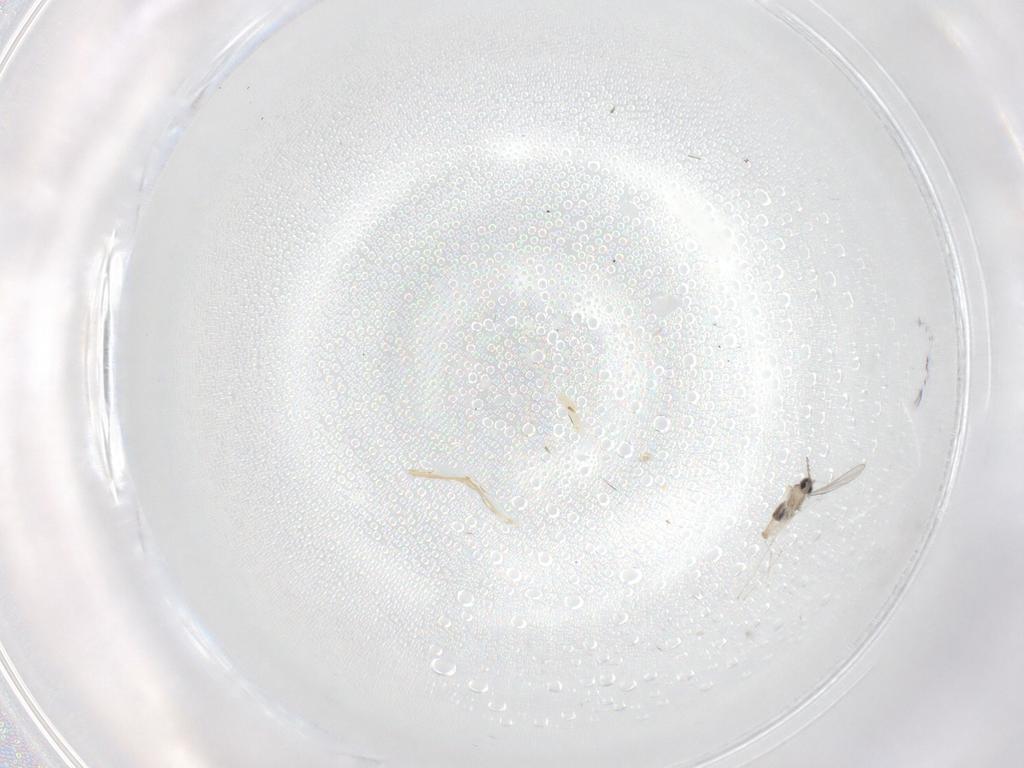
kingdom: Animalia
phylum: Arthropoda
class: Insecta
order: Diptera
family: Cecidomyiidae
